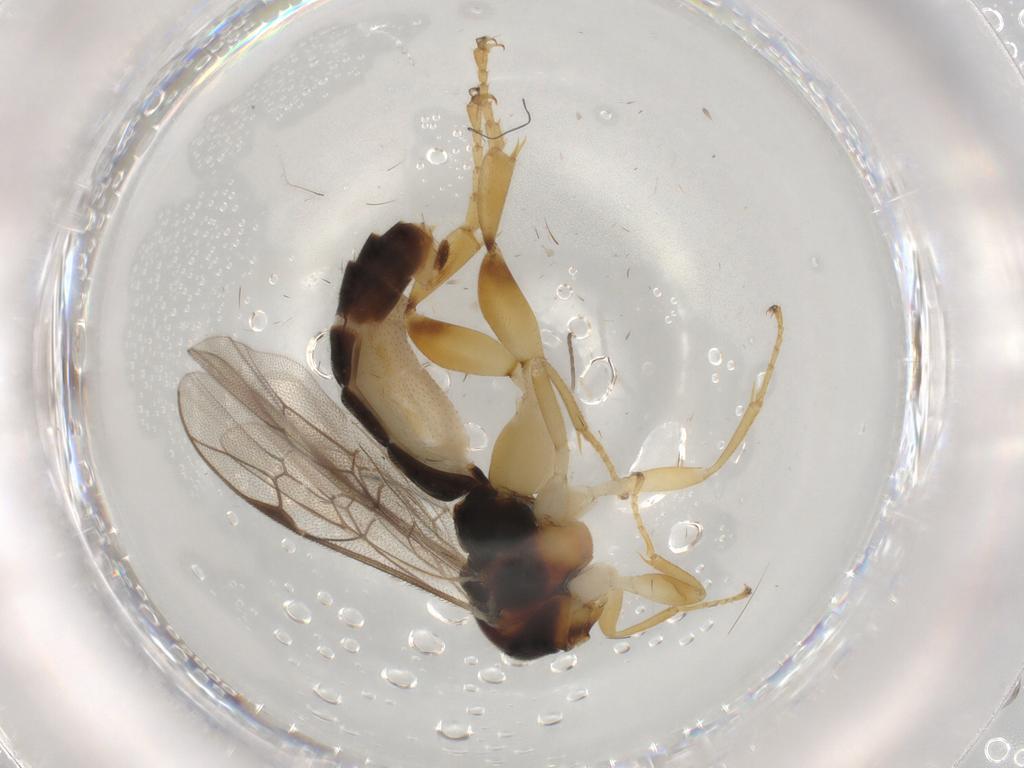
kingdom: Animalia
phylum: Arthropoda
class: Insecta
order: Hymenoptera
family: Ichneumonidae
